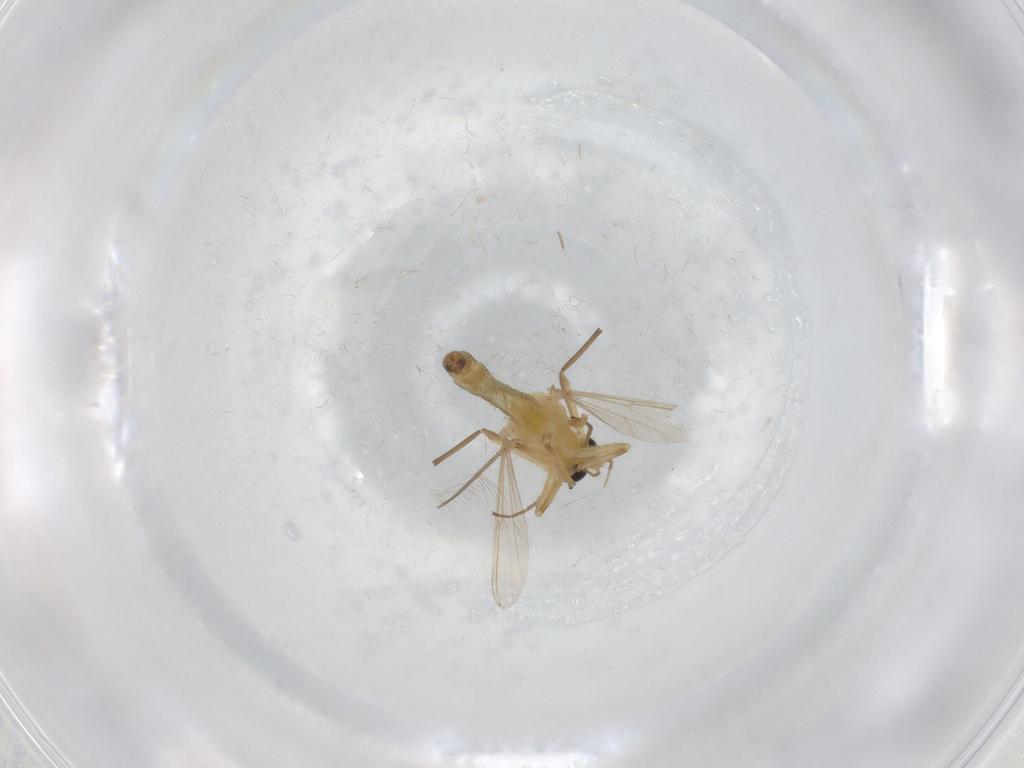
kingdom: Animalia
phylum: Arthropoda
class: Insecta
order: Diptera
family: Chironomidae
